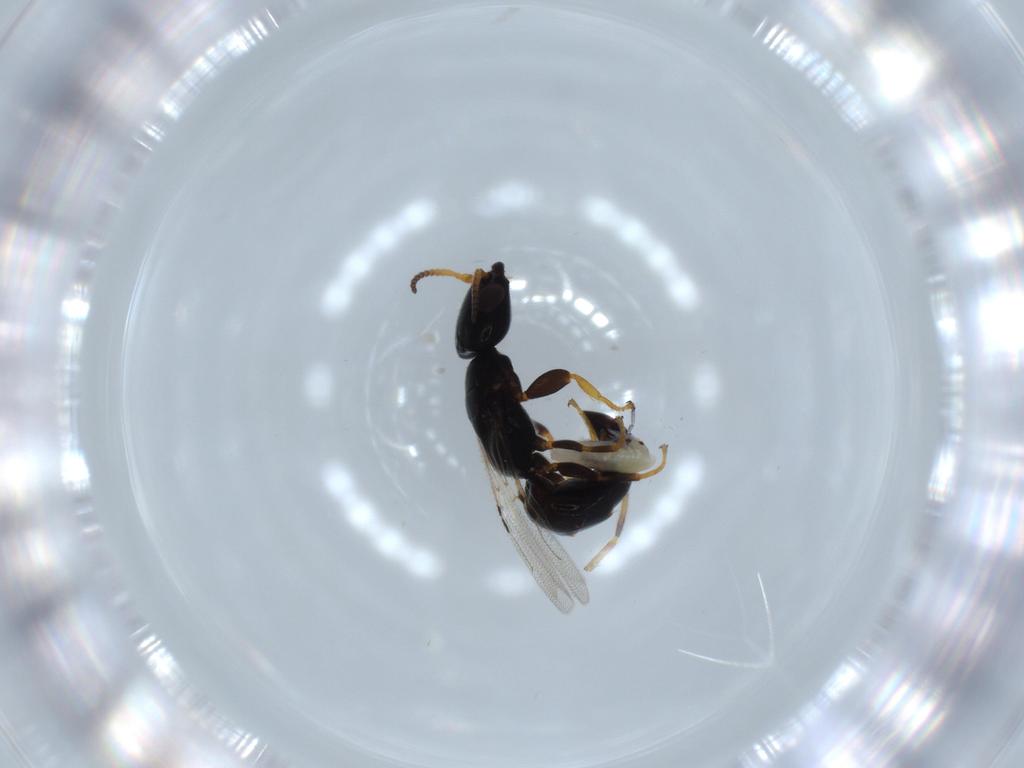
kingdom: Animalia
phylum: Arthropoda
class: Insecta
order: Hymenoptera
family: Bethylidae
